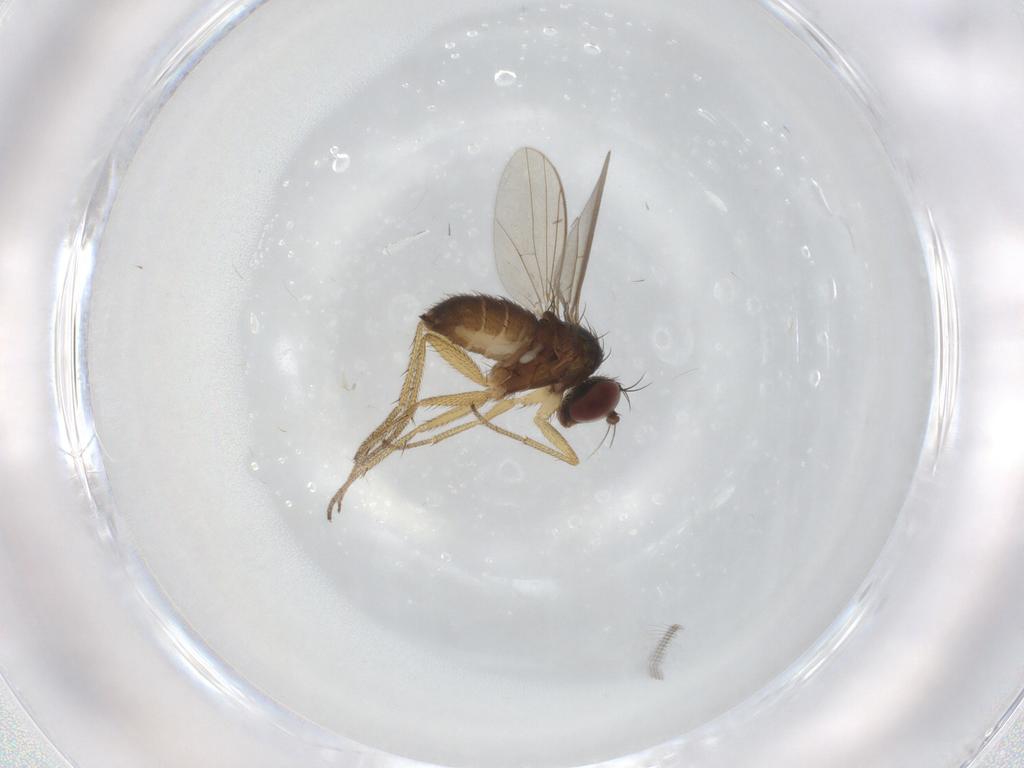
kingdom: Animalia
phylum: Arthropoda
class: Insecta
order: Diptera
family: Dolichopodidae
